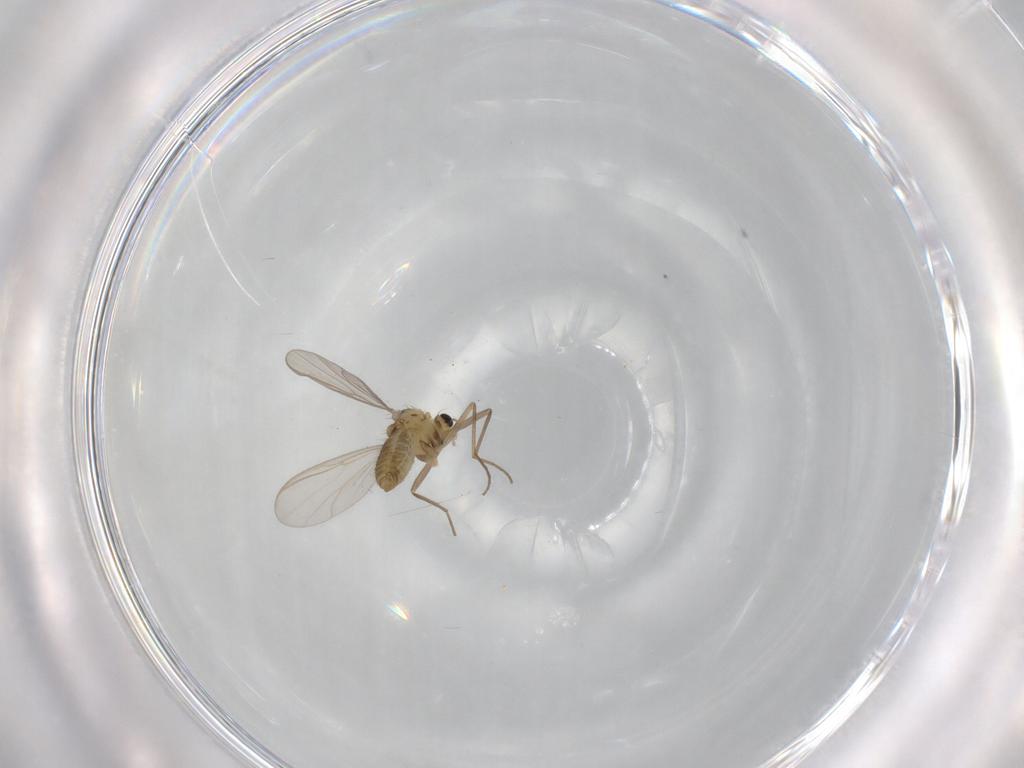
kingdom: Animalia
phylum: Arthropoda
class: Insecta
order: Diptera
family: Chironomidae
